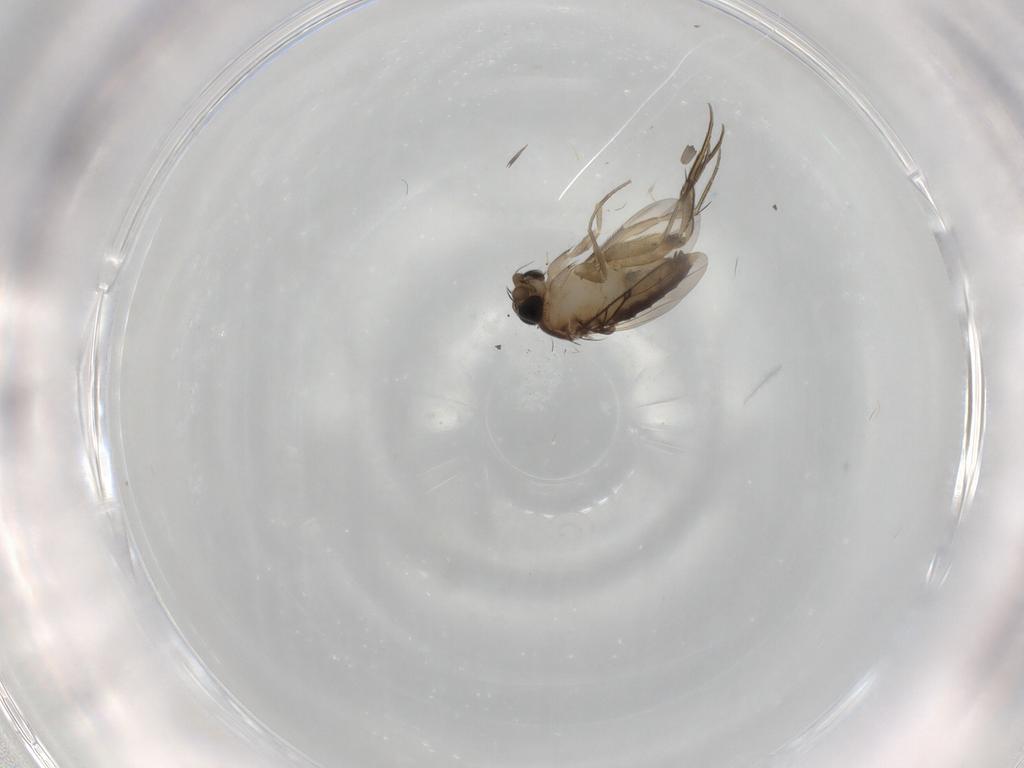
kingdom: Animalia
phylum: Arthropoda
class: Insecta
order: Diptera
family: Phoridae
